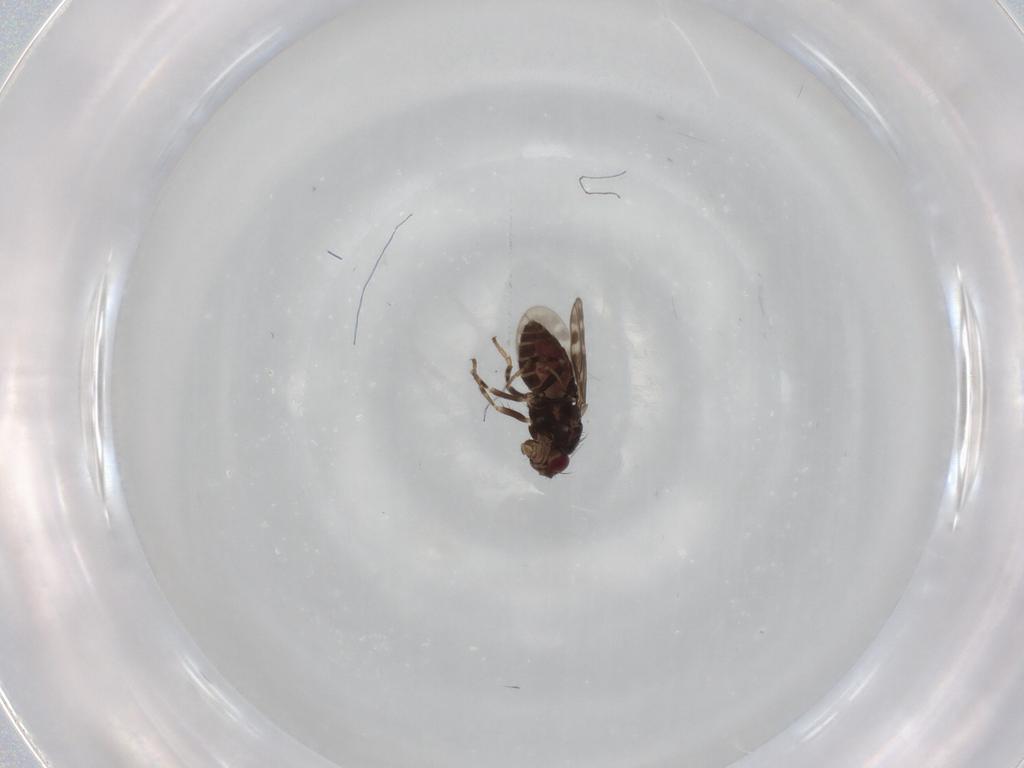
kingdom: Animalia
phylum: Arthropoda
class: Insecta
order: Diptera
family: Sphaeroceridae
